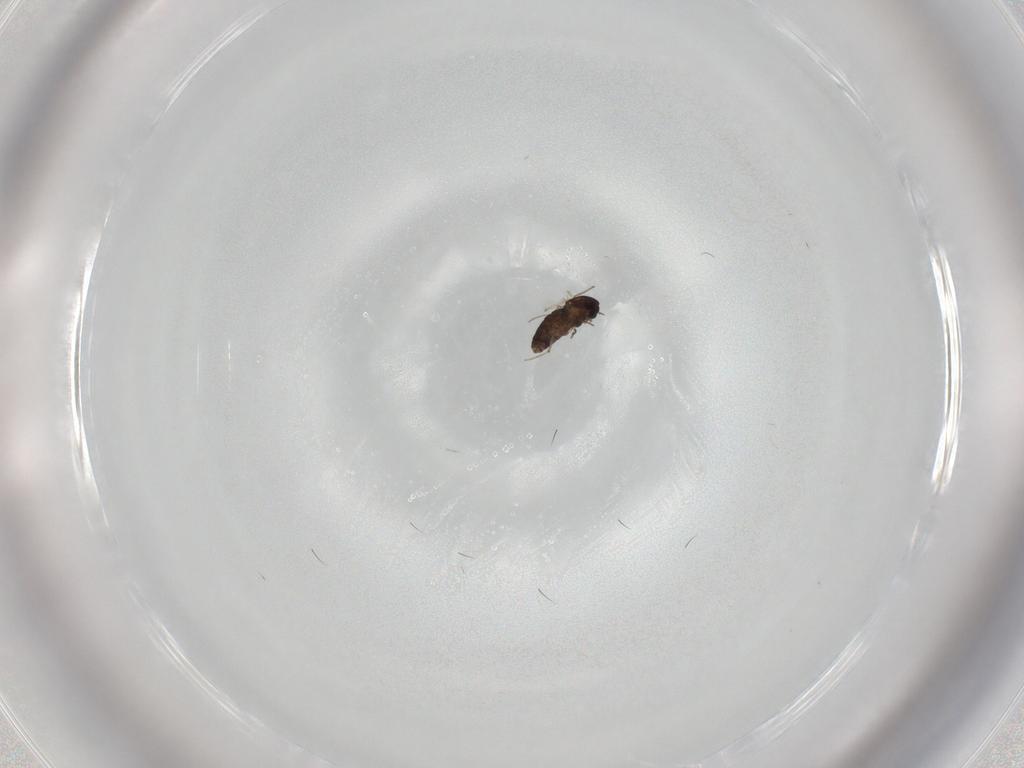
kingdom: Animalia
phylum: Arthropoda
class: Insecta
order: Diptera
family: Chironomidae
